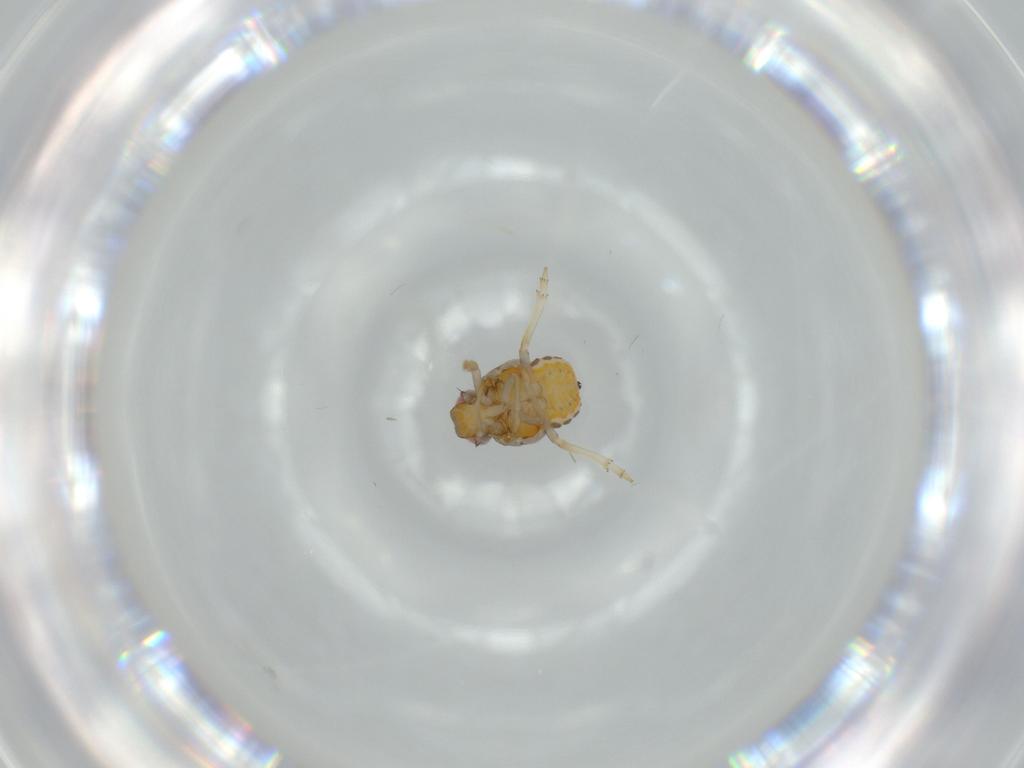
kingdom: Animalia
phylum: Arthropoda
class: Insecta
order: Hemiptera
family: Issidae
